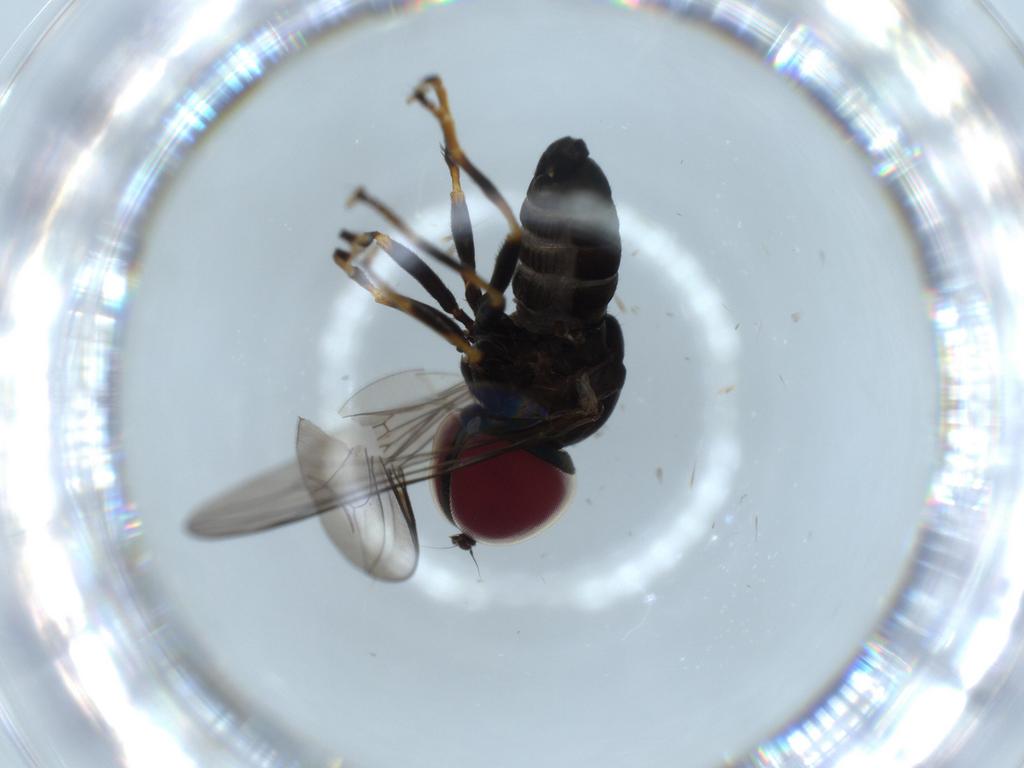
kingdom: Animalia
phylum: Arthropoda
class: Insecta
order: Diptera
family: Pipunculidae
